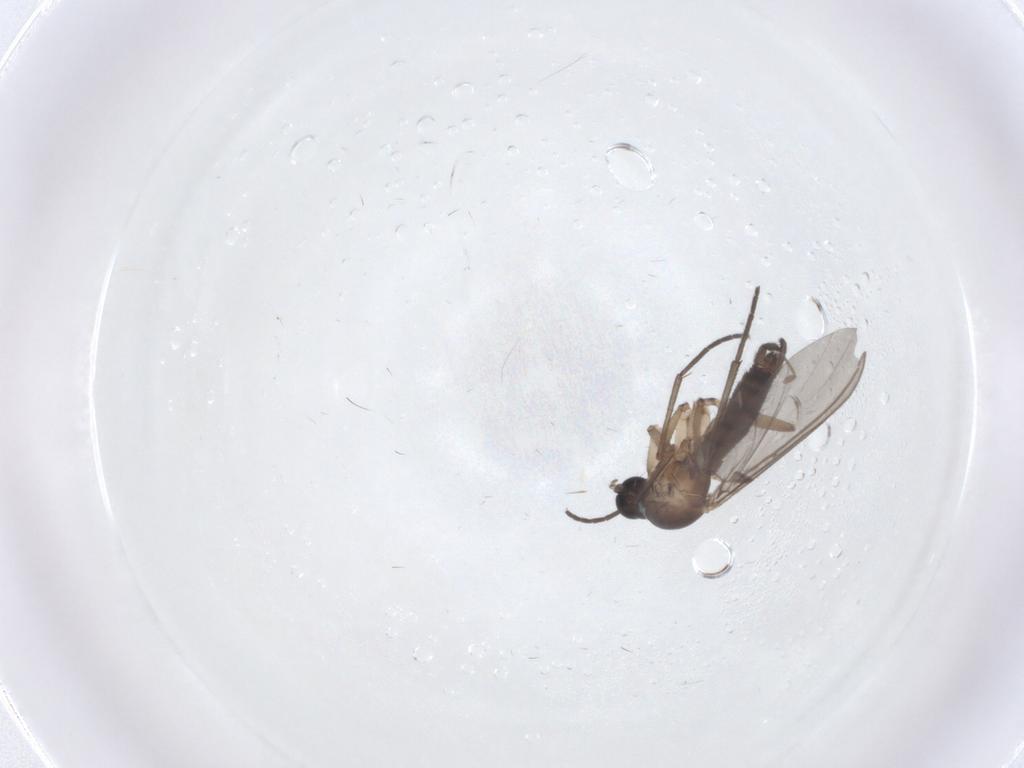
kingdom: Animalia
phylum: Arthropoda
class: Insecta
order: Diptera
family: Sciaridae
